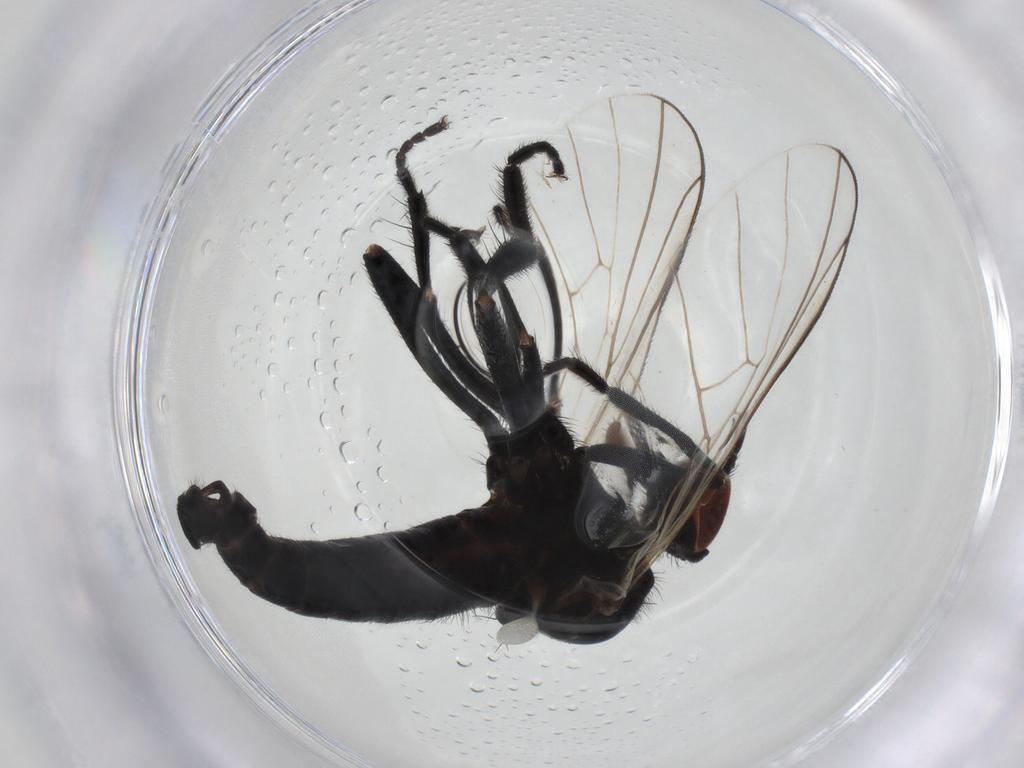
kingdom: Animalia
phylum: Arthropoda
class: Insecta
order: Diptera
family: Empididae
